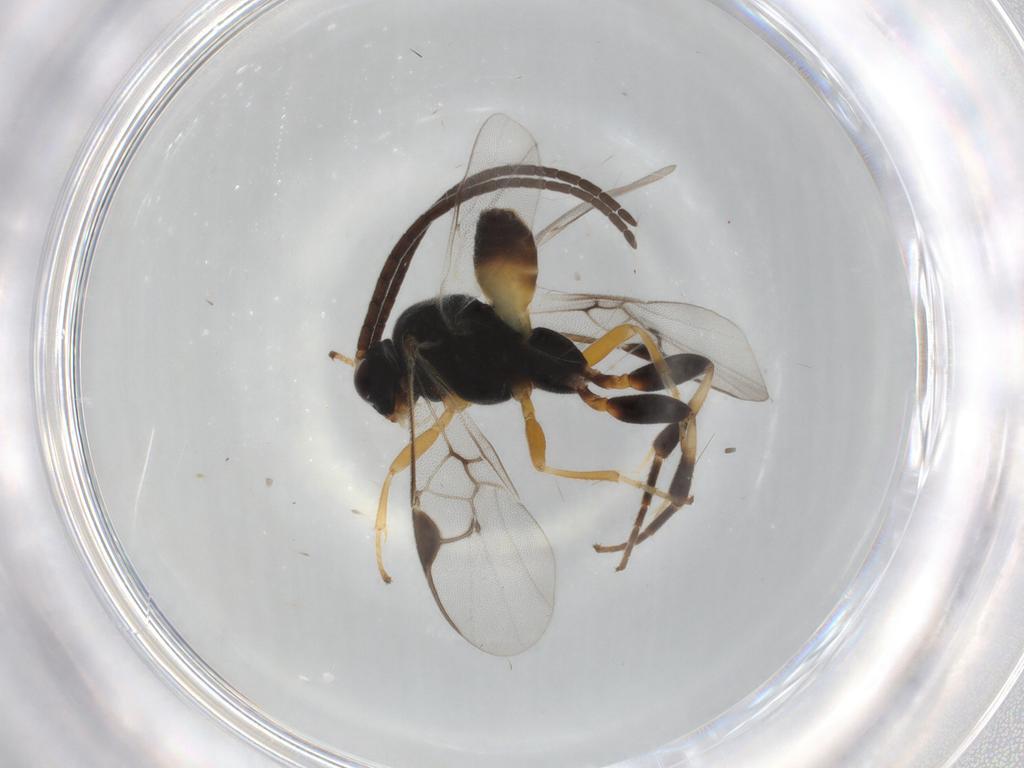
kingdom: Animalia
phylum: Arthropoda
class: Insecta
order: Hymenoptera
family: Braconidae
